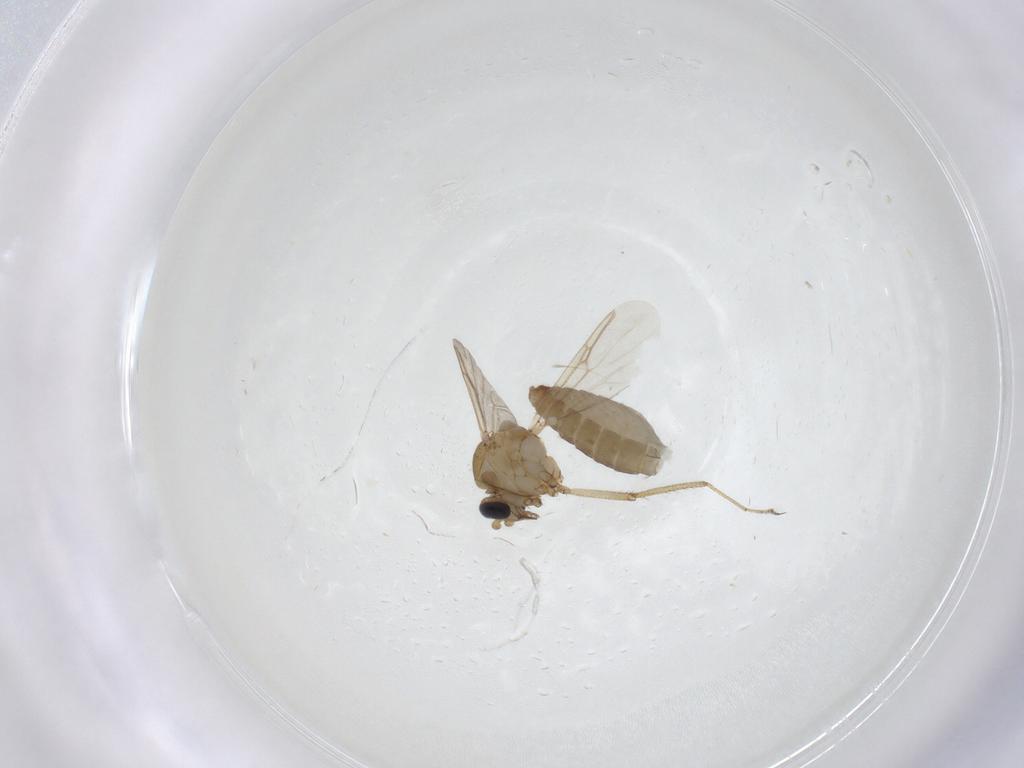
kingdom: Animalia
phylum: Arthropoda
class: Insecta
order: Diptera
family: Ceratopogonidae
